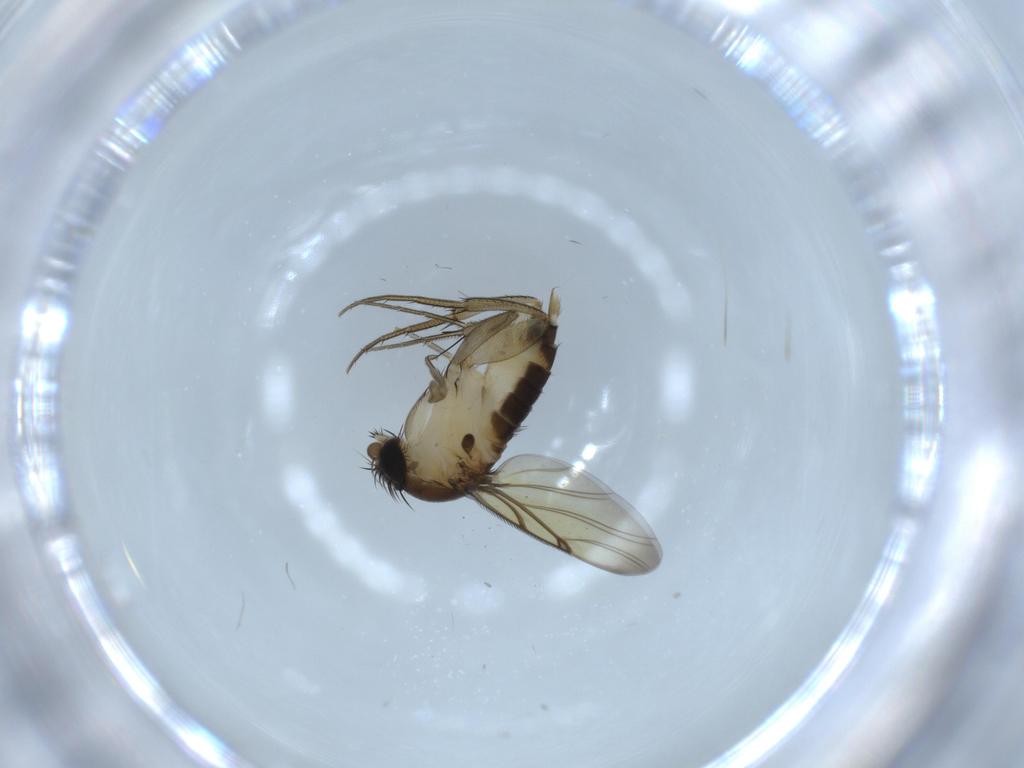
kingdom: Animalia
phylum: Arthropoda
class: Insecta
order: Diptera
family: Phoridae
